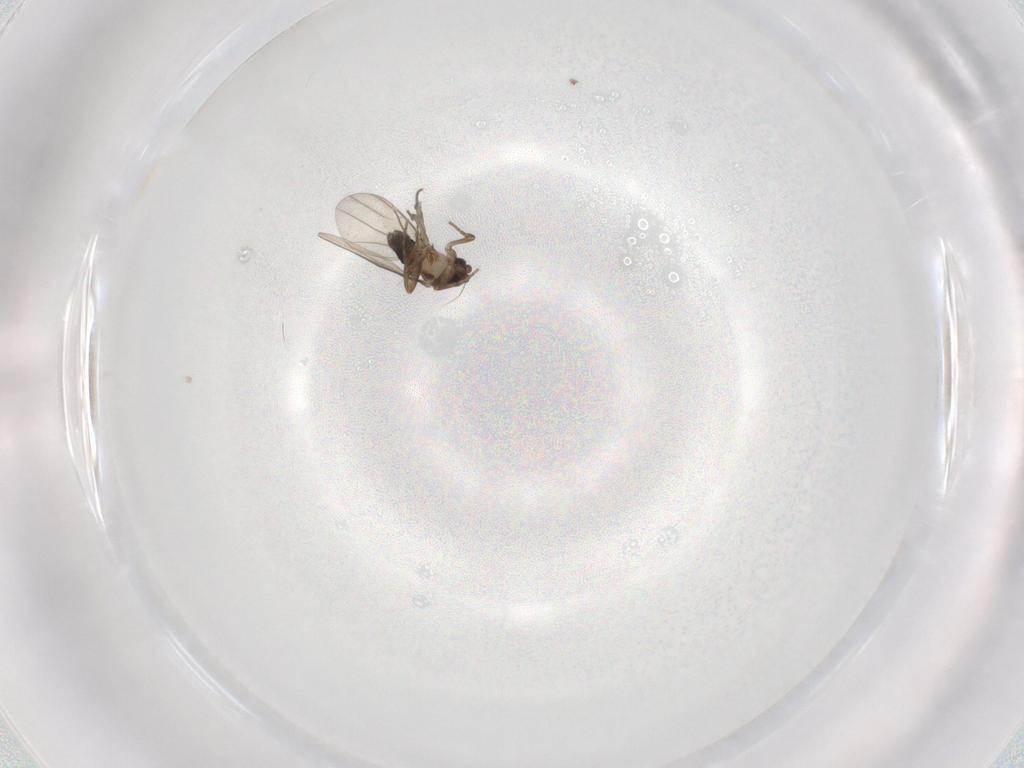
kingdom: Animalia
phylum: Arthropoda
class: Insecta
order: Diptera
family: Phoridae
